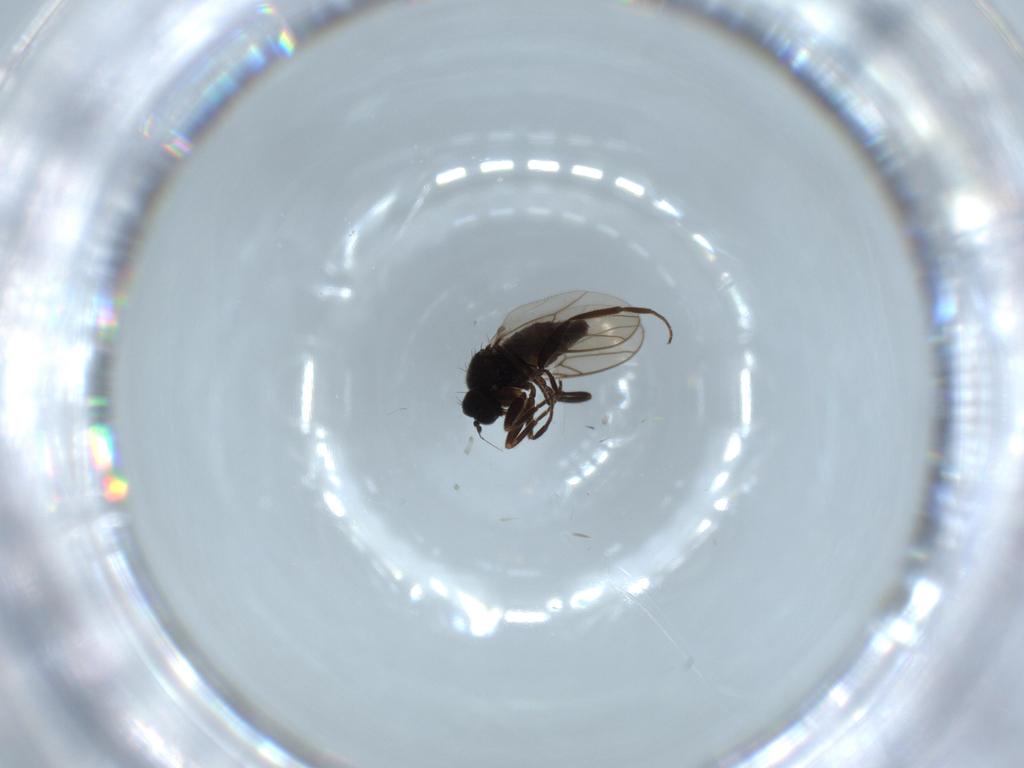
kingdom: Animalia
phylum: Arthropoda
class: Insecta
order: Diptera
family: Hybotidae
